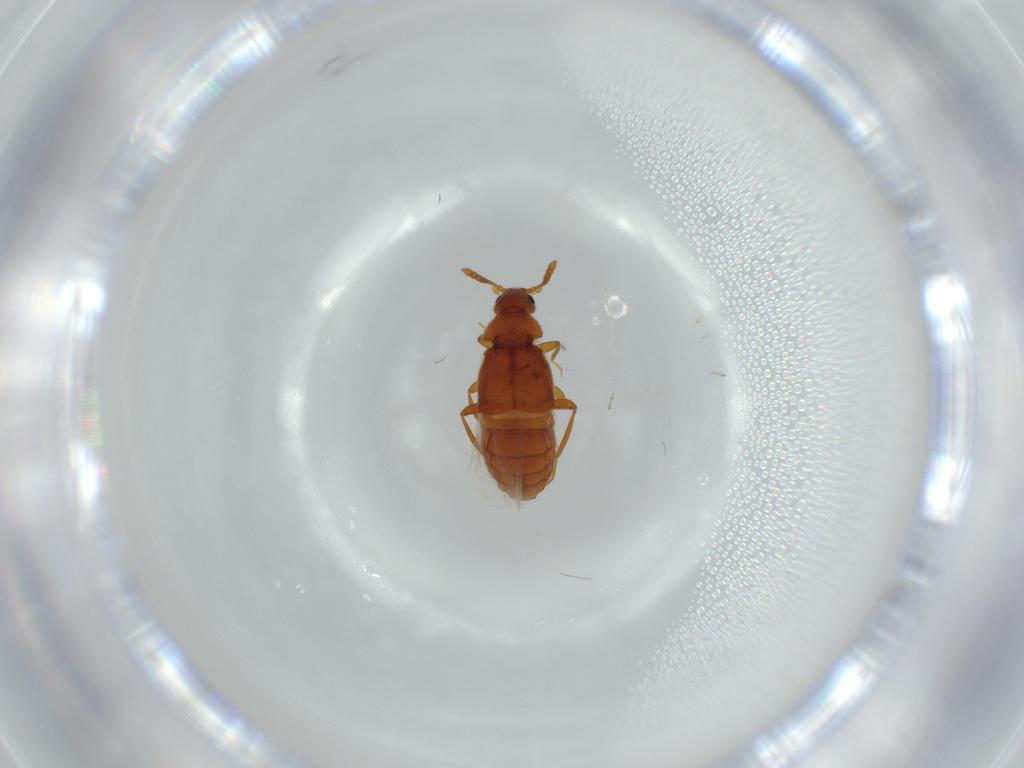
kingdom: Animalia
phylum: Arthropoda
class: Insecta
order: Coleoptera
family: Staphylinidae
